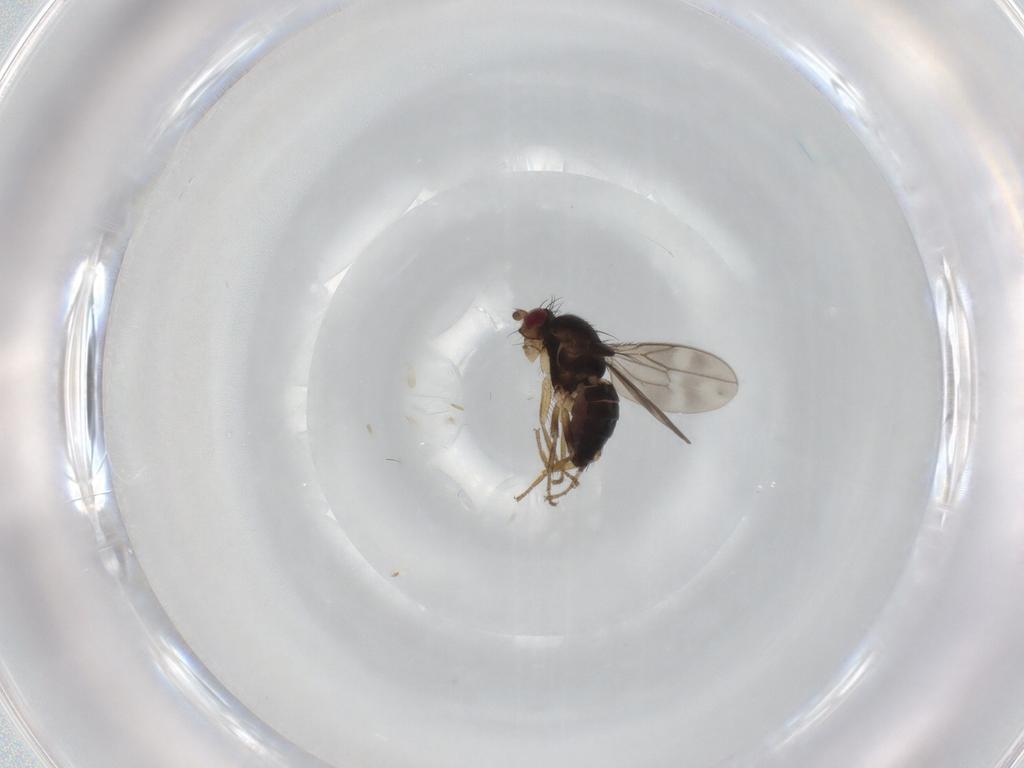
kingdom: Animalia
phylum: Arthropoda
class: Insecta
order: Diptera
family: Sphaeroceridae
